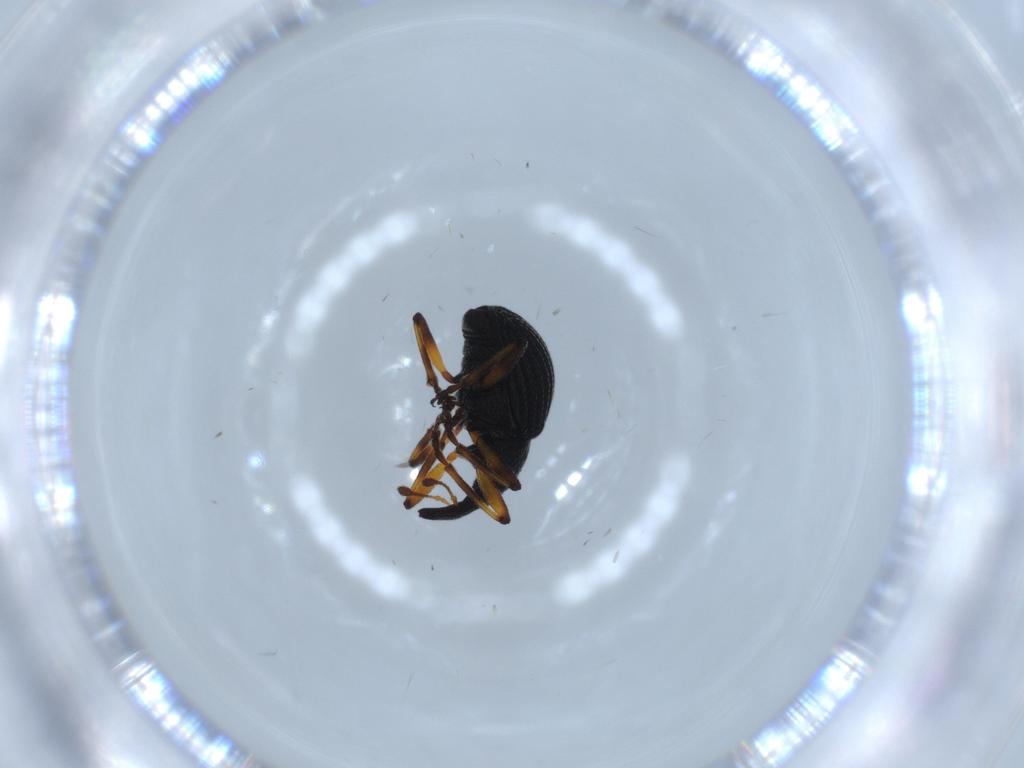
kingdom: Animalia
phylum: Arthropoda
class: Insecta
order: Coleoptera
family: Brentidae
